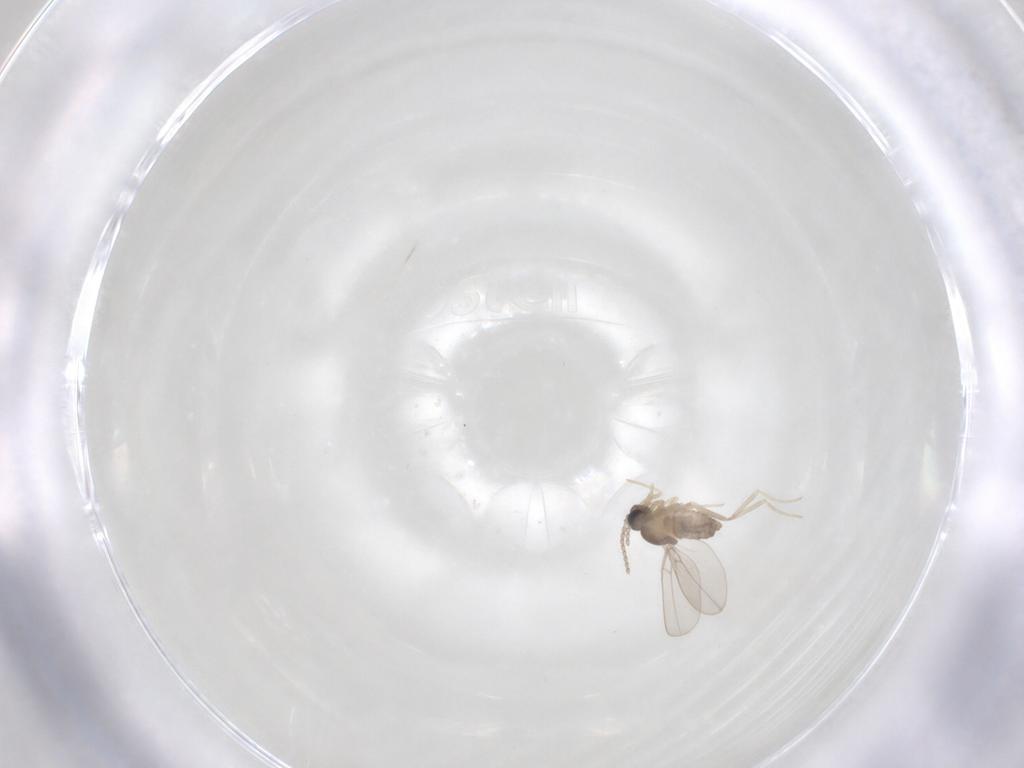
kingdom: Animalia
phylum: Arthropoda
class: Insecta
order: Diptera
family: Cecidomyiidae
